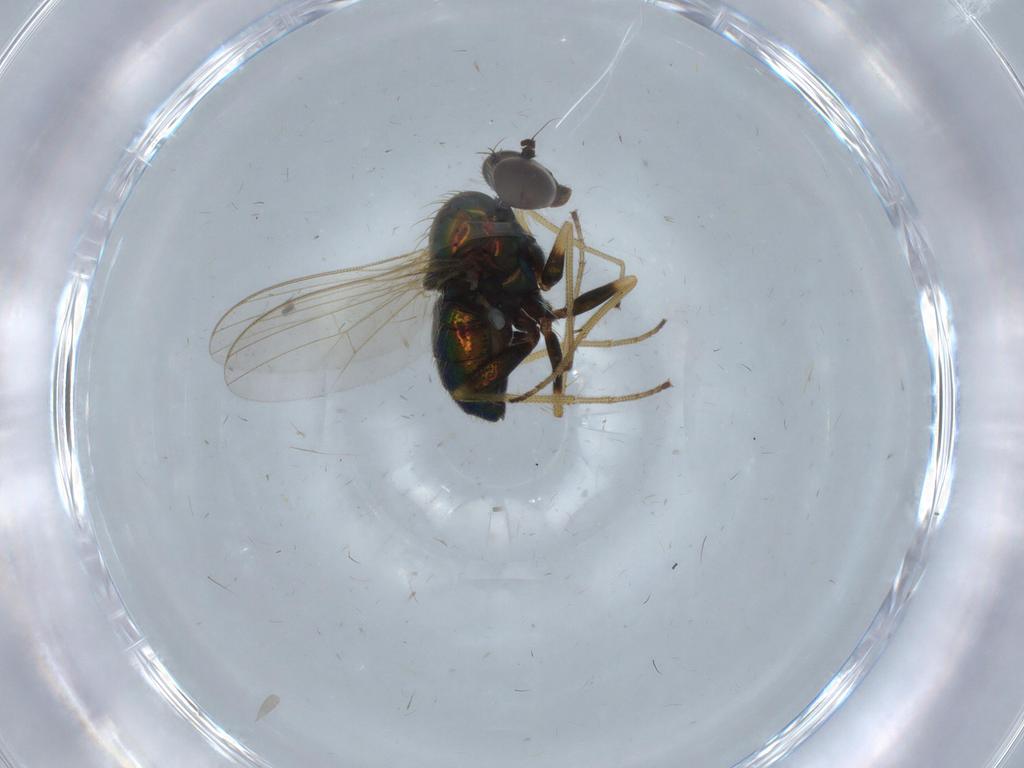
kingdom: Animalia
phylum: Arthropoda
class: Insecta
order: Diptera
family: Dolichopodidae
